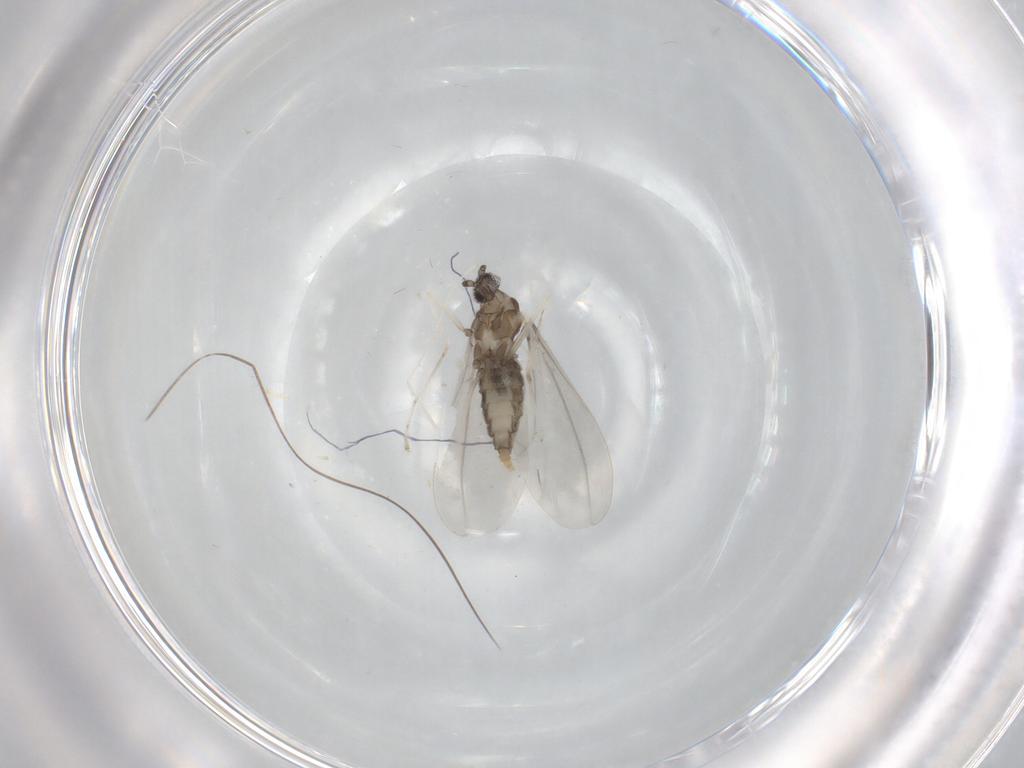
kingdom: Animalia
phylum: Arthropoda
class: Insecta
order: Diptera
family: Cecidomyiidae
